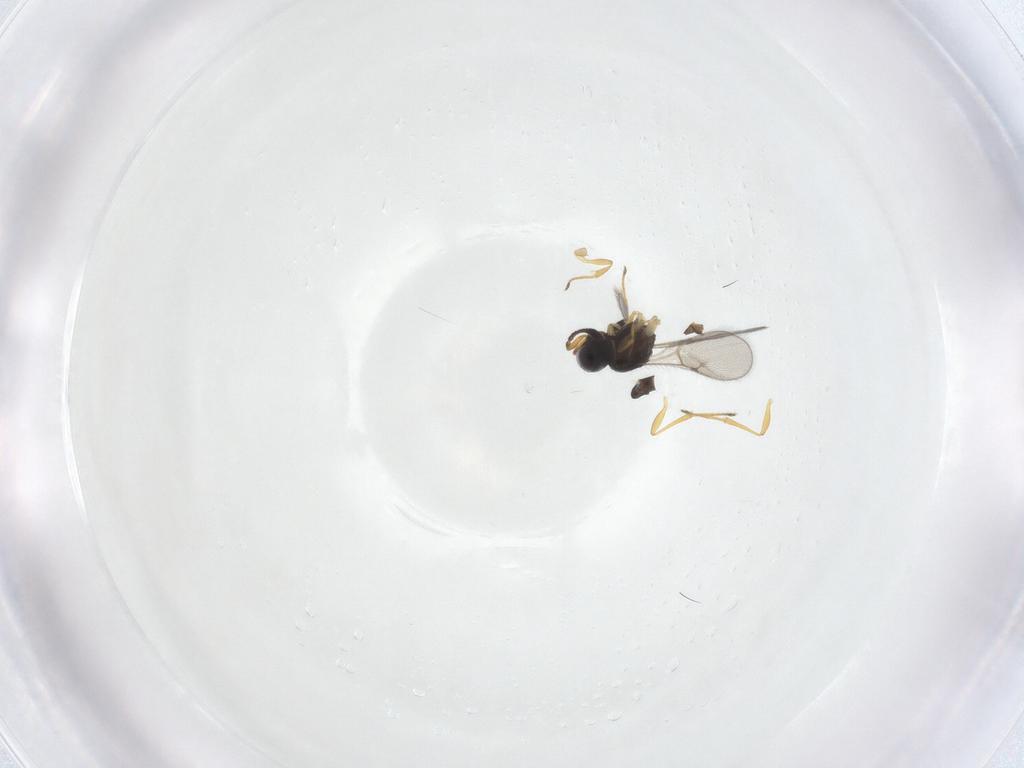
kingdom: Animalia
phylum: Arthropoda
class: Insecta
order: Hymenoptera
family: Scelionidae
